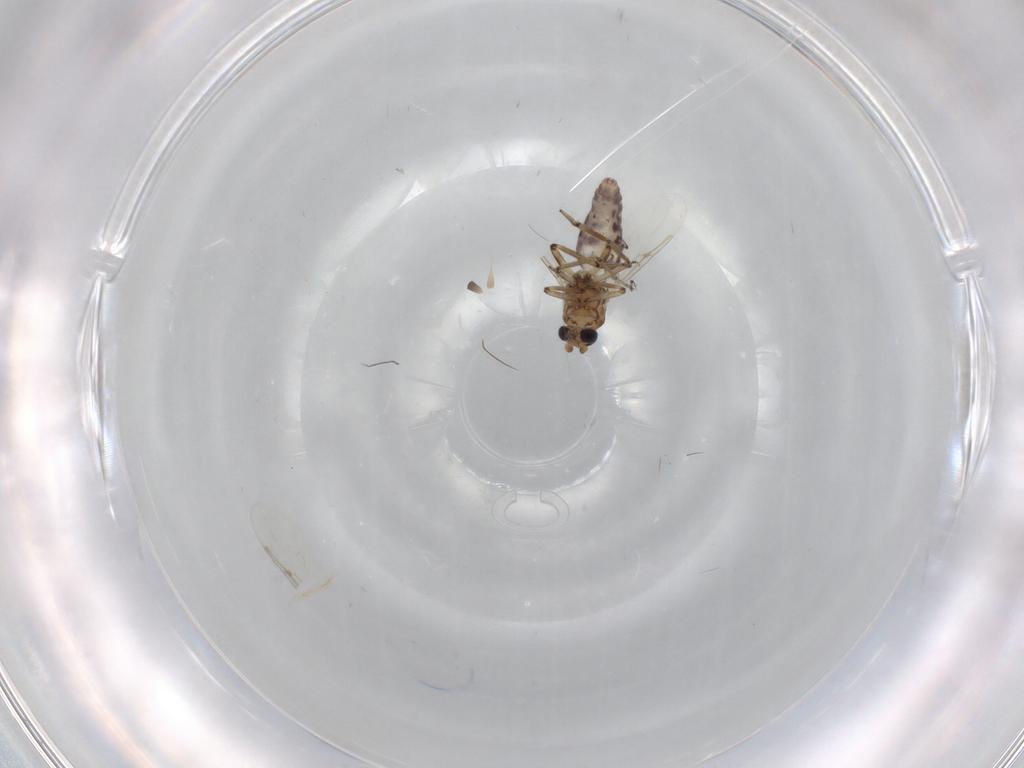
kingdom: Animalia
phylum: Arthropoda
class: Insecta
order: Diptera
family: Ceratopogonidae
